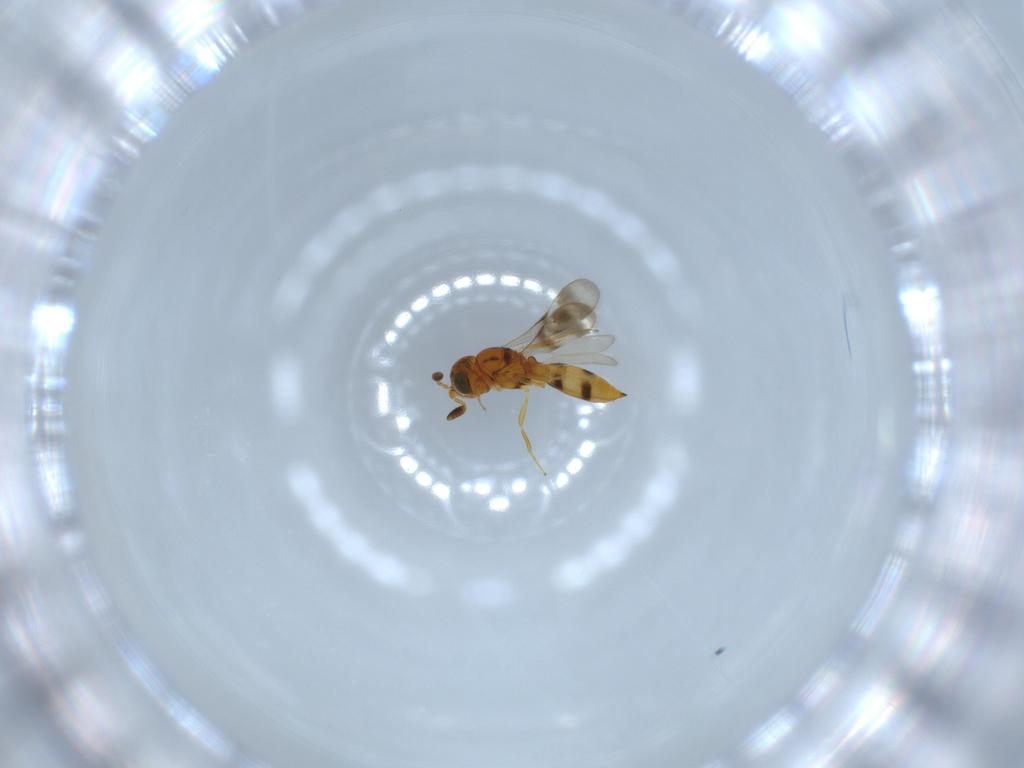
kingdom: Animalia
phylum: Arthropoda
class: Insecta
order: Hymenoptera
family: Scelionidae
